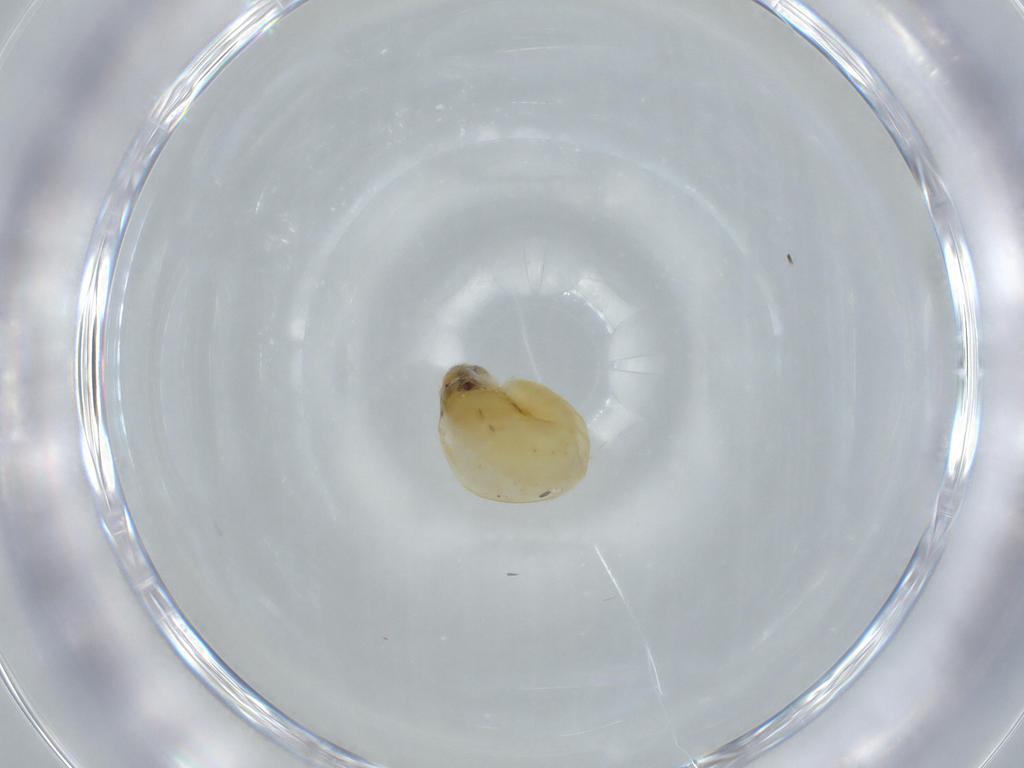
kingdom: Animalia
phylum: Arthropoda
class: Insecta
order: Hymenoptera
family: Dryinidae
